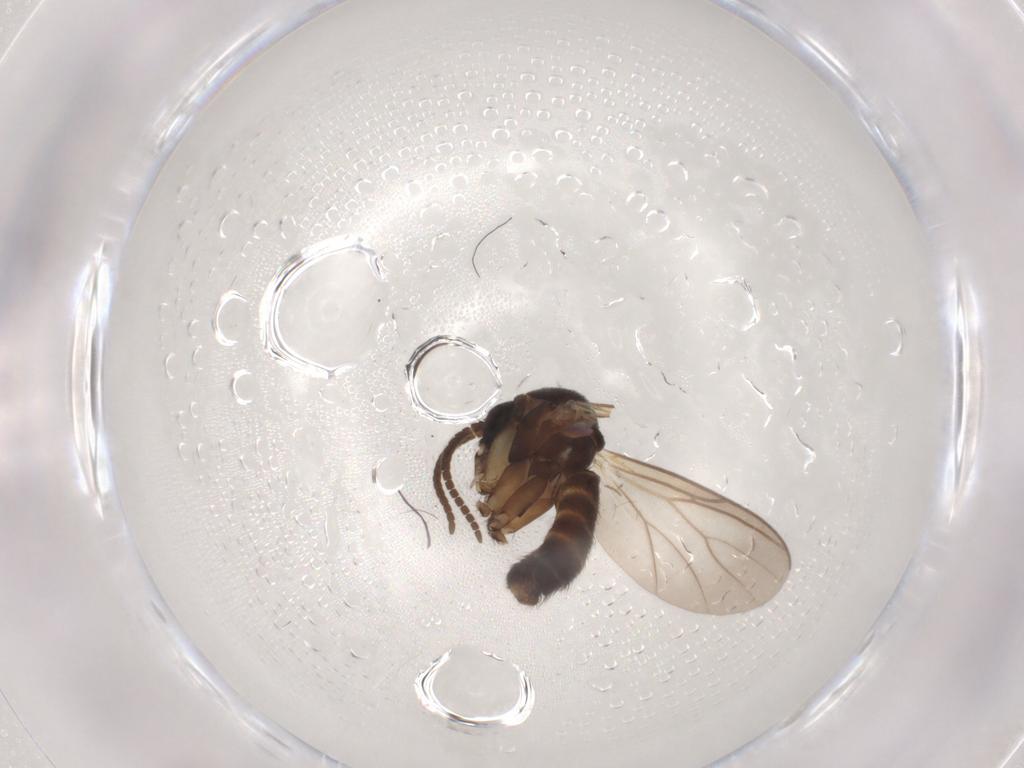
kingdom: Animalia
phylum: Arthropoda
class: Insecta
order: Diptera
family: Mycetophilidae
